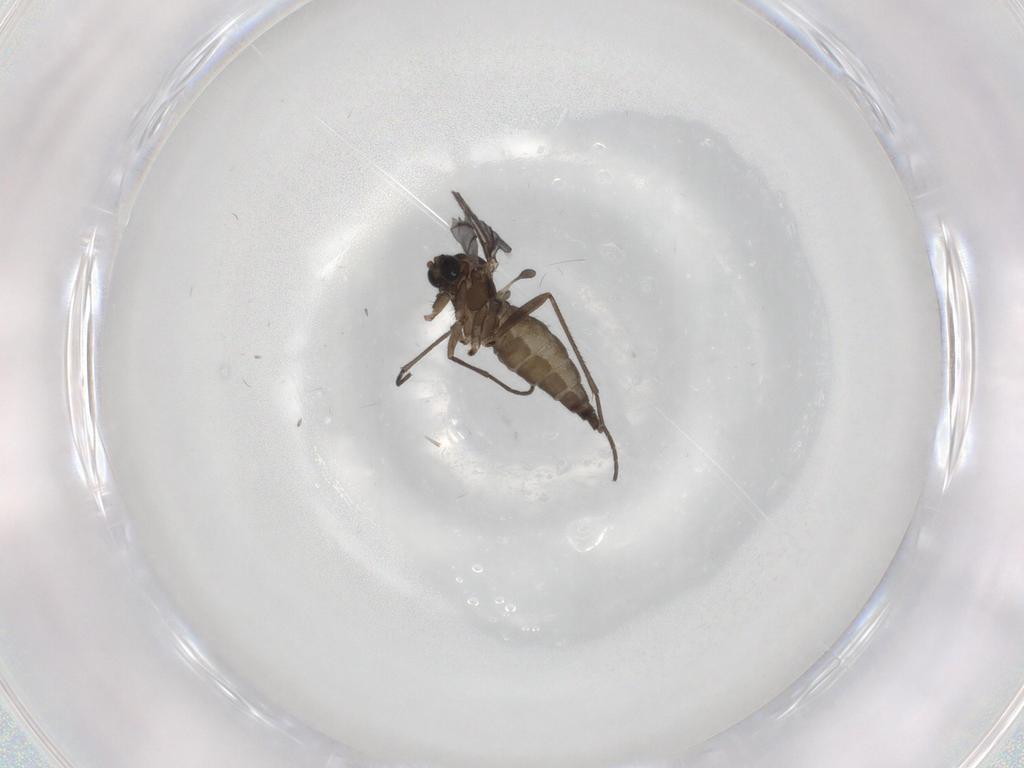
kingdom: Animalia
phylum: Arthropoda
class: Insecta
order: Diptera
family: Sciaridae
